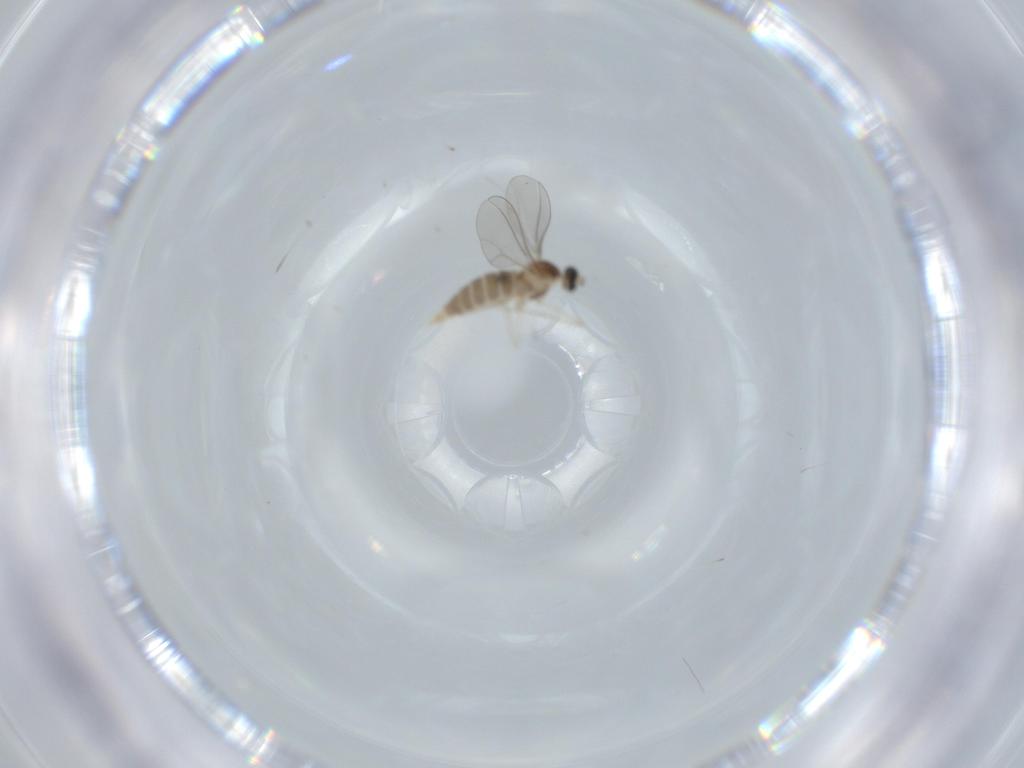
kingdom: Animalia
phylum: Arthropoda
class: Insecta
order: Diptera
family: Cecidomyiidae
